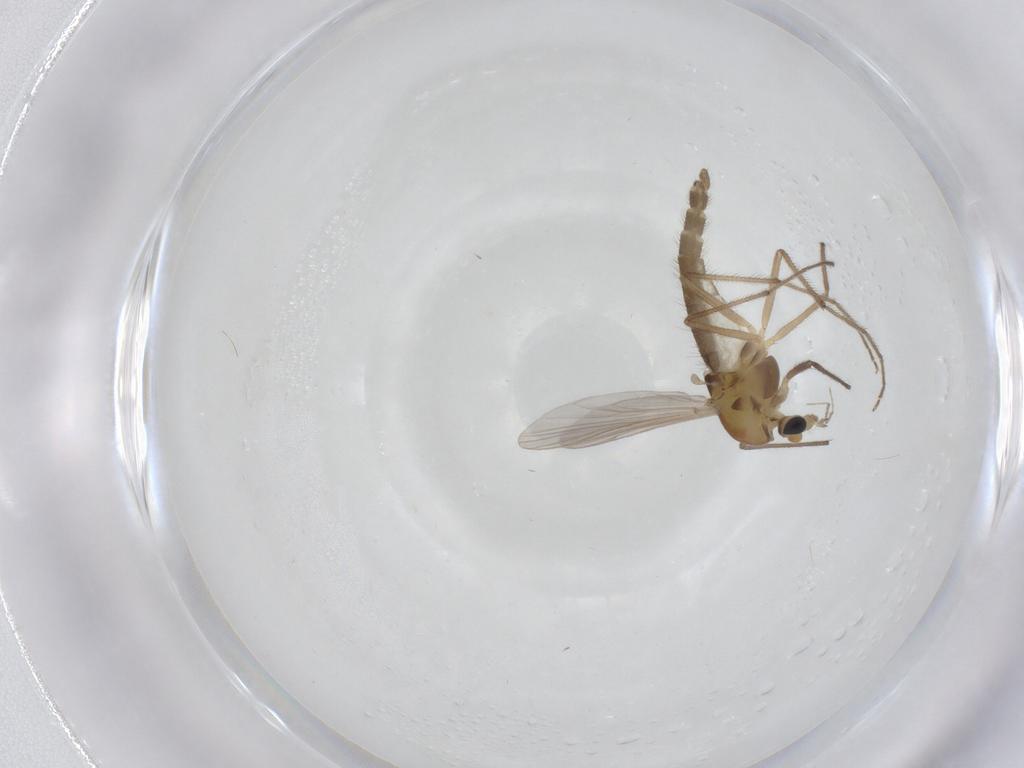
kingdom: Animalia
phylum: Arthropoda
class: Insecta
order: Diptera
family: Chironomidae
